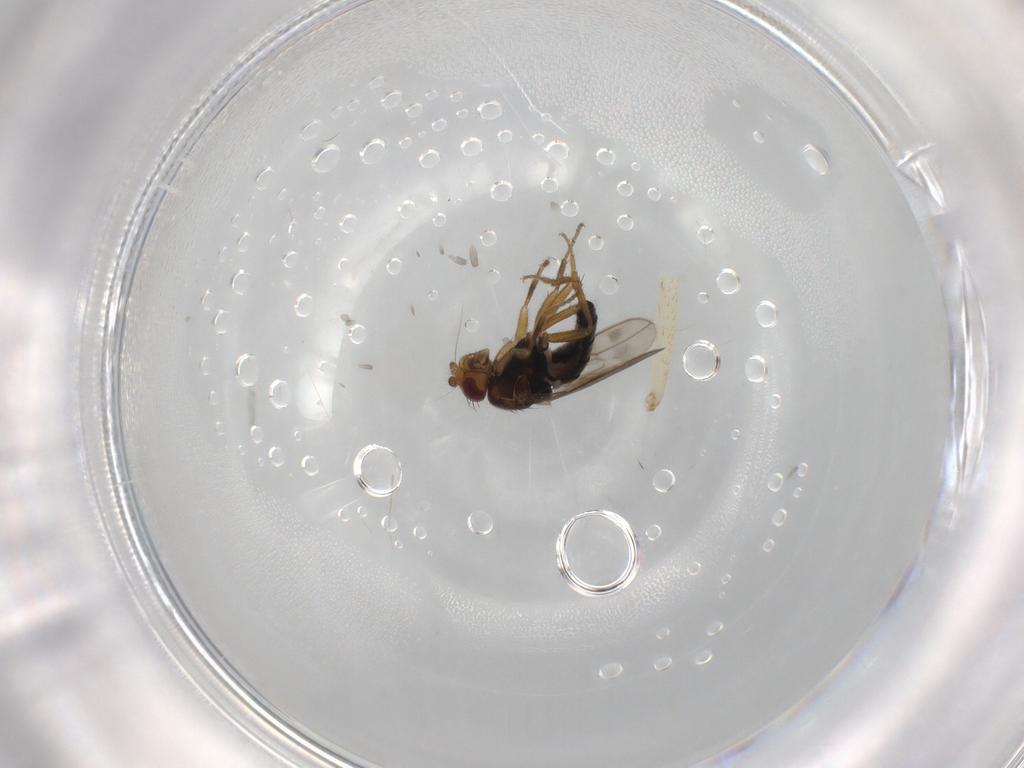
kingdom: Animalia
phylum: Arthropoda
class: Insecta
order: Diptera
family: Sphaeroceridae
